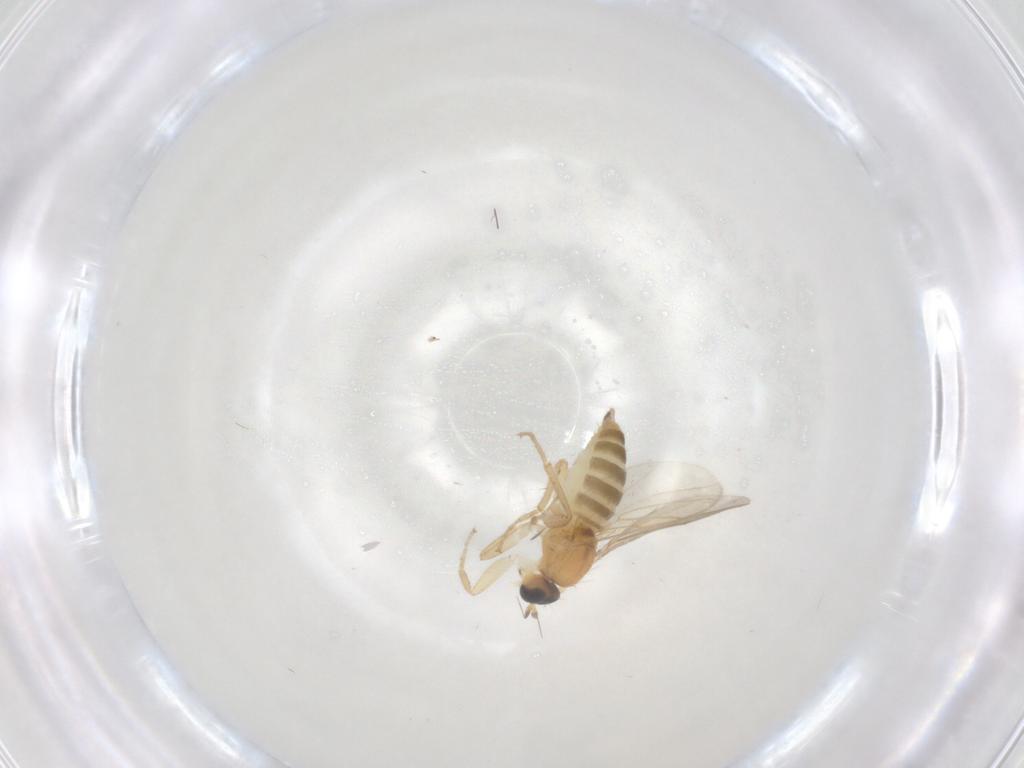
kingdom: Animalia
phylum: Arthropoda
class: Insecta
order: Diptera
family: Hybotidae
